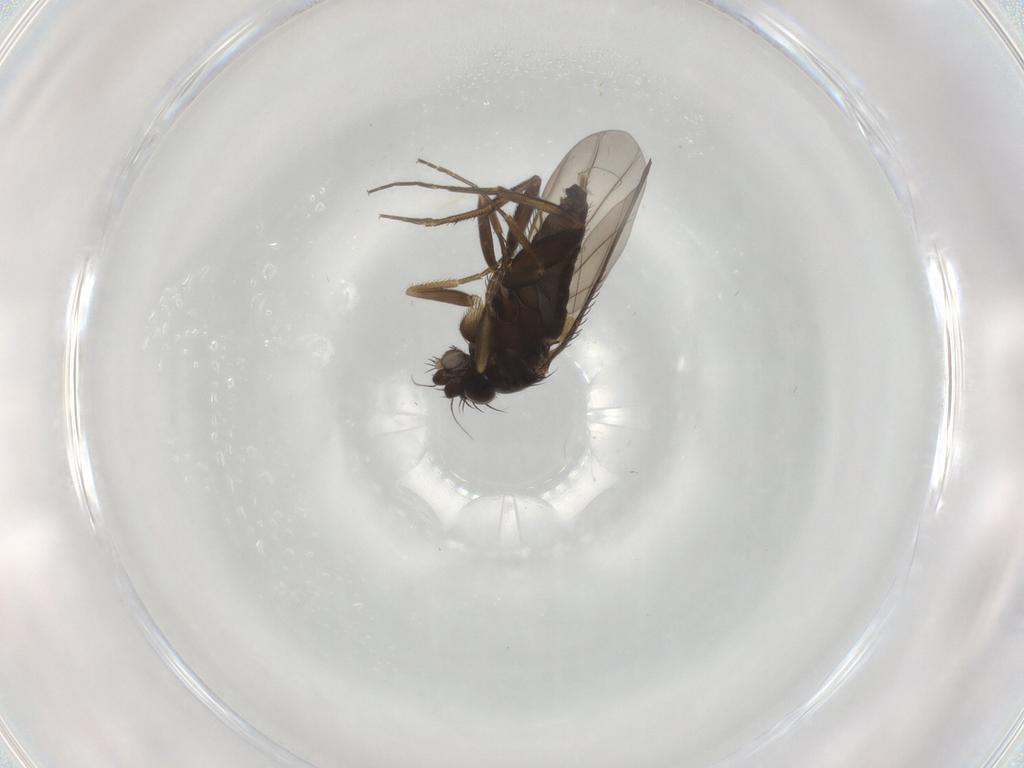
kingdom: Animalia
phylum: Arthropoda
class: Insecta
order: Diptera
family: Phoridae
